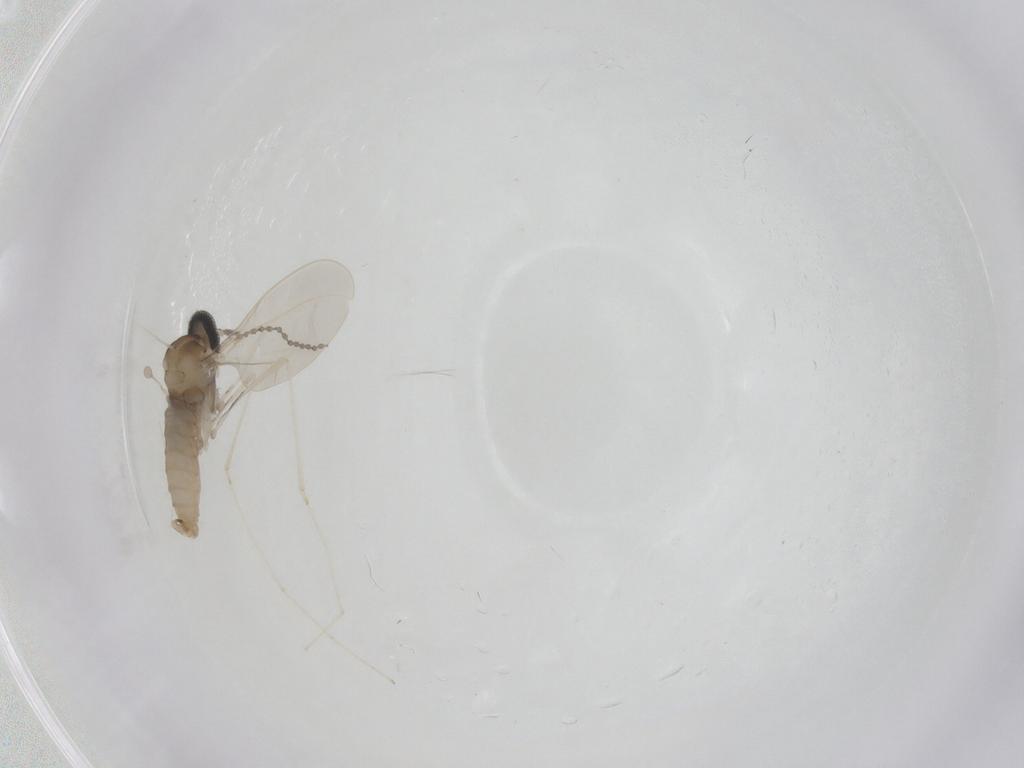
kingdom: Animalia
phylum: Arthropoda
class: Insecta
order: Diptera
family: Cecidomyiidae
